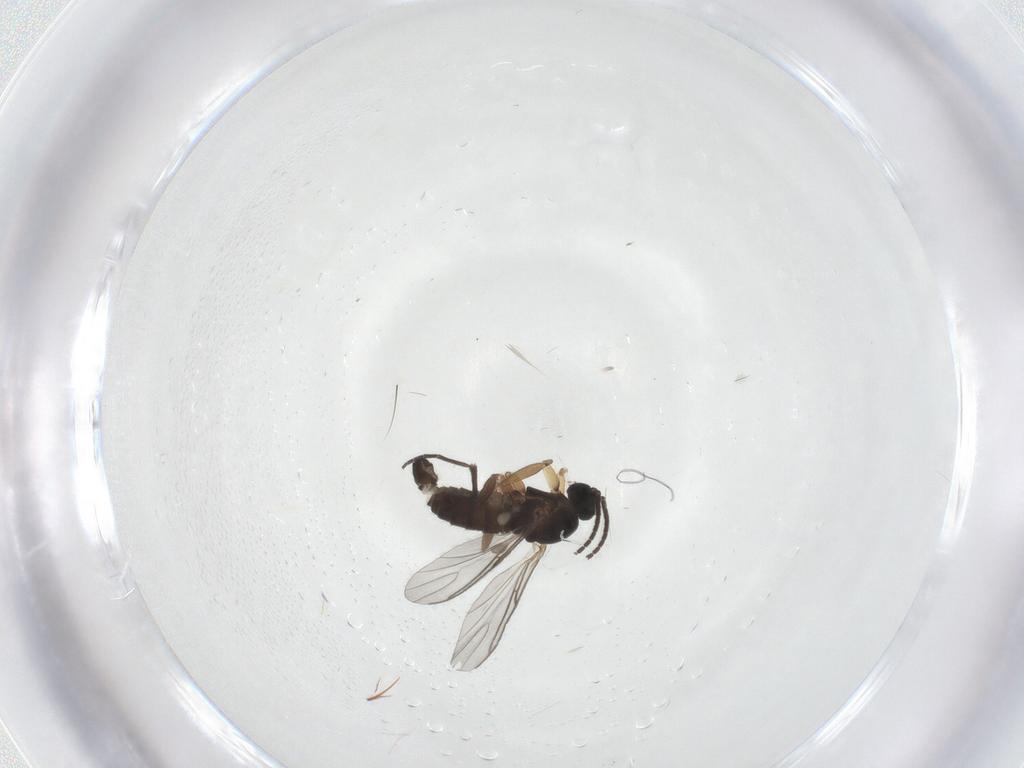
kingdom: Animalia
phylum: Arthropoda
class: Insecta
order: Diptera
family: Sciaridae
